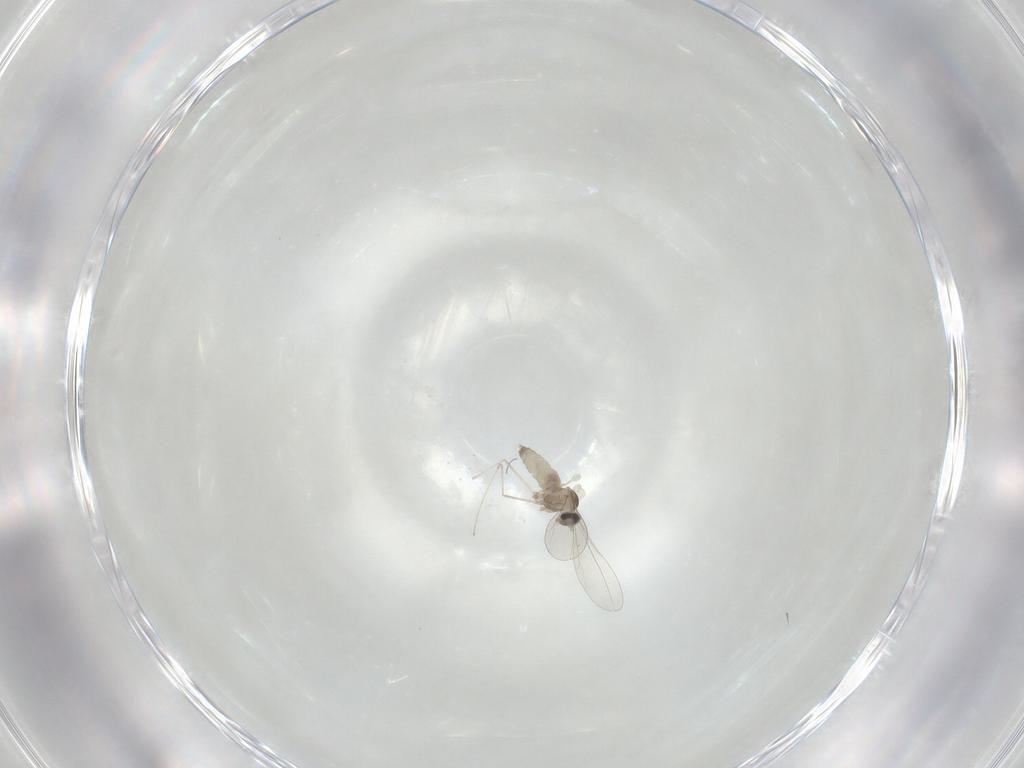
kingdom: Animalia
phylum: Arthropoda
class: Insecta
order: Diptera
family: Cecidomyiidae
